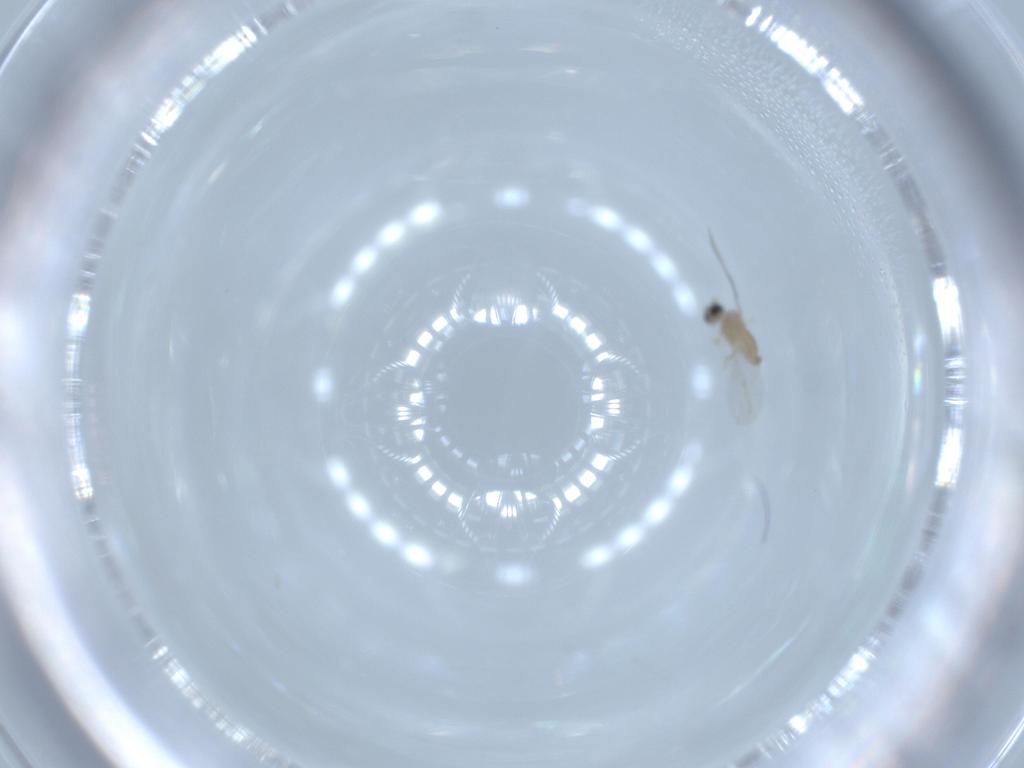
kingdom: Animalia
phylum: Arthropoda
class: Insecta
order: Diptera
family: Cecidomyiidae
